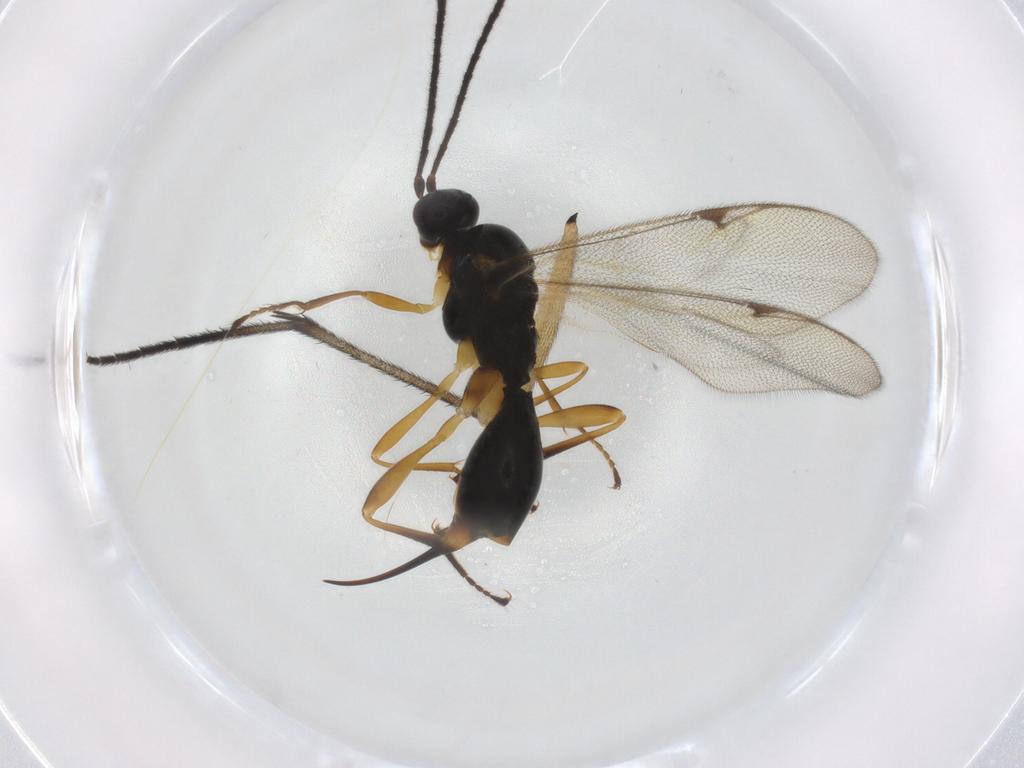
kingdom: Animalia
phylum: Arthropoda
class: Insecta
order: Hymenoptera
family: Proctotrupidae
